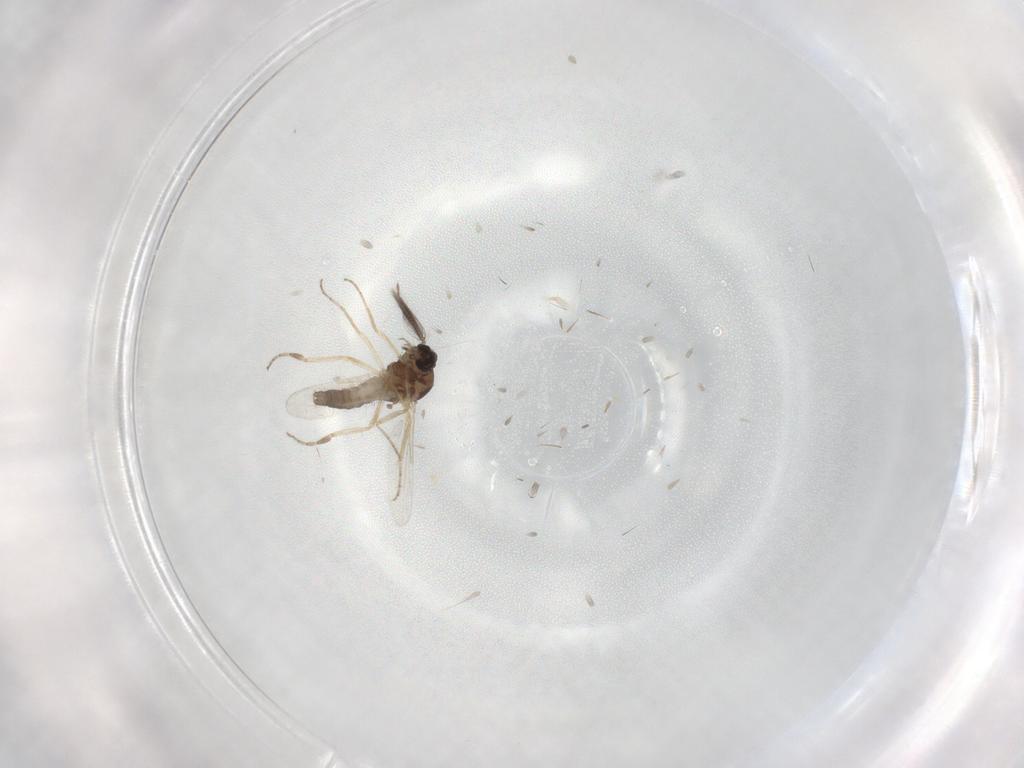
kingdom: Animalia
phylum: Arthropoda
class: Insecta
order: Diptera
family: Ceratopogonidae
